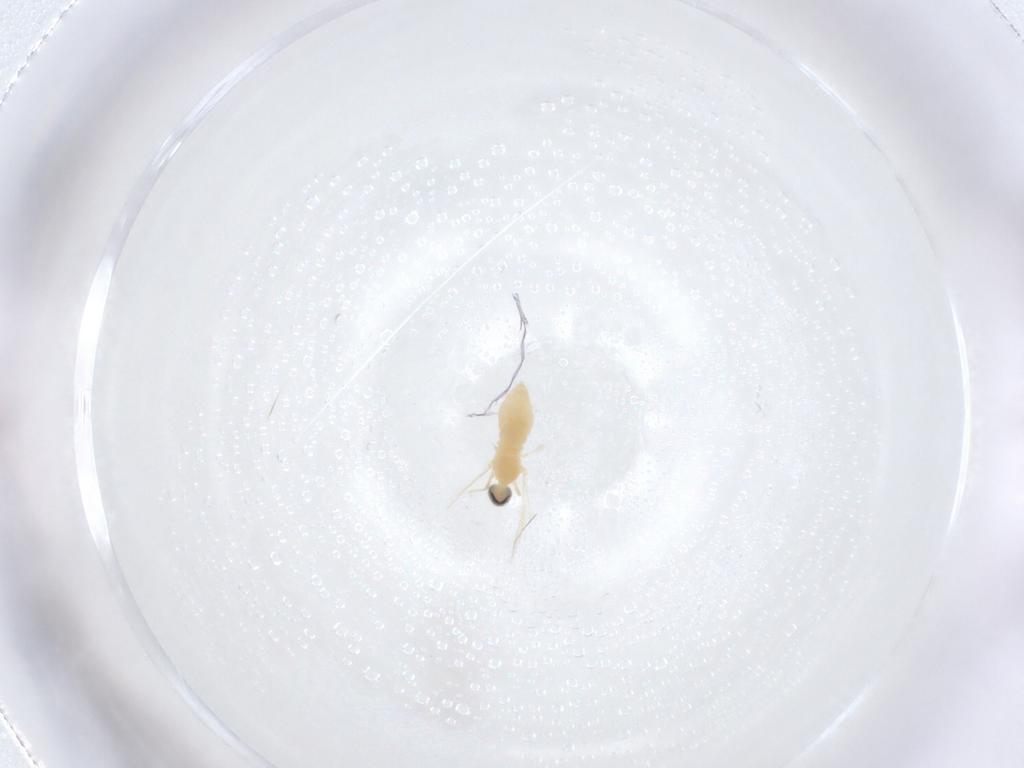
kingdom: Animalia
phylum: Arthropoda
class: Insecta
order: Diptera
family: Cecidomyiidae
